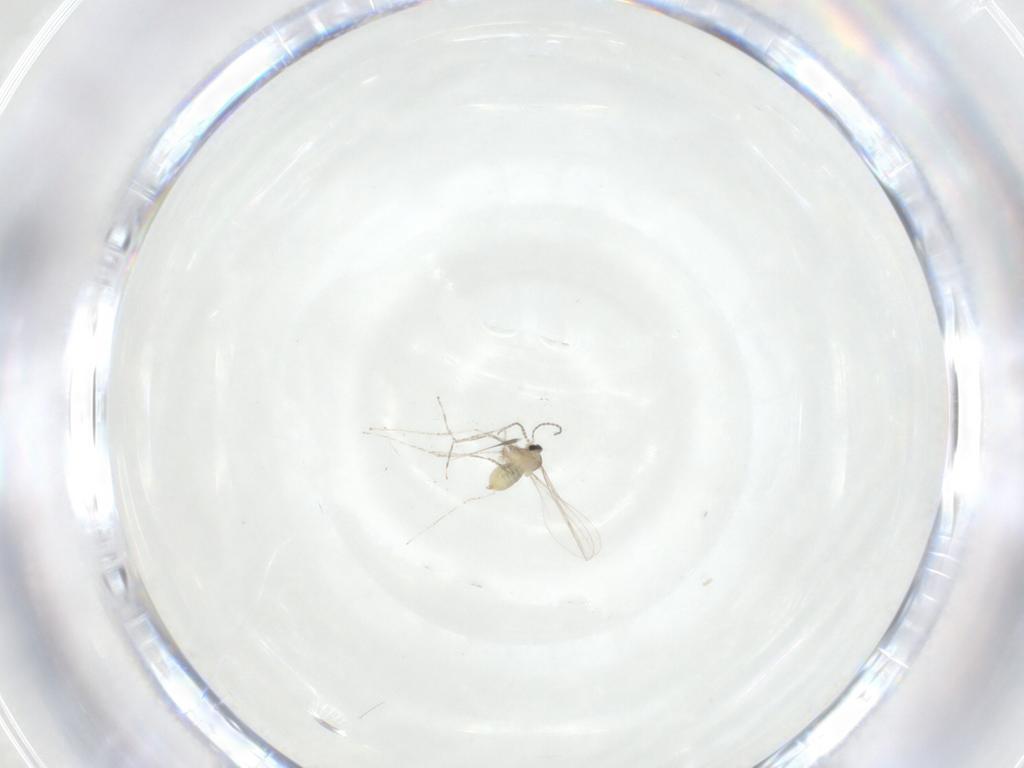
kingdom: Animalia
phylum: Arthropoda
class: Insecta
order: Diptera
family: Cecidomyiidae
